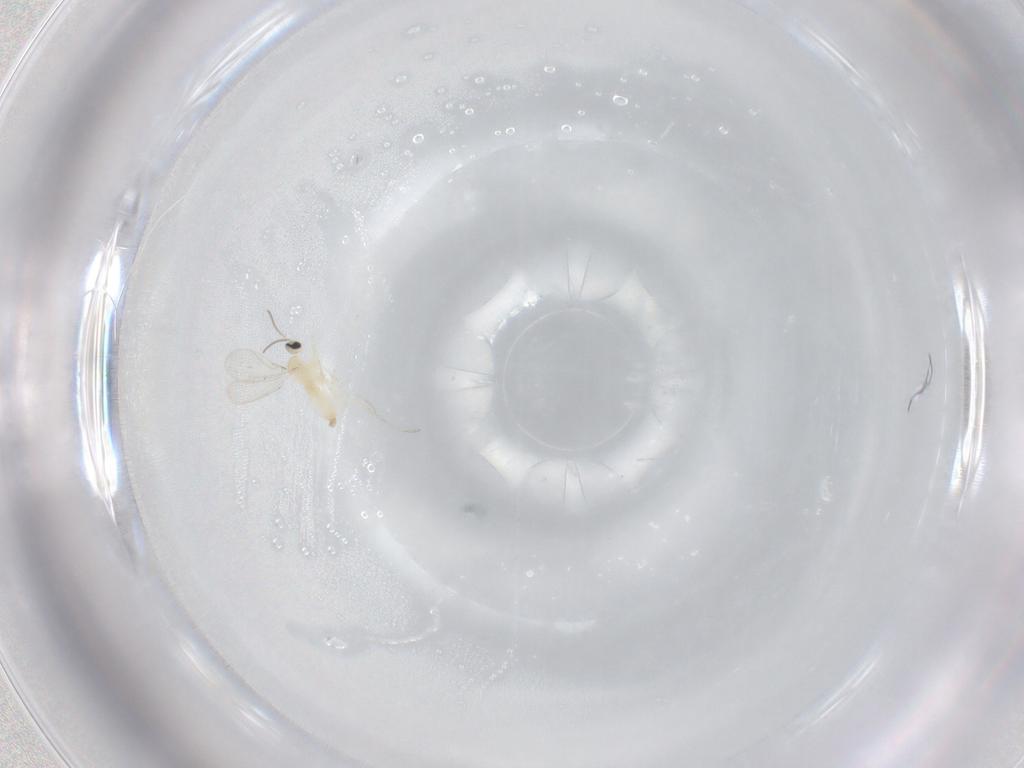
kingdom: Animalia
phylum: Arthropoda
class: Insecta
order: Diptera
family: Cecidomyiidae
